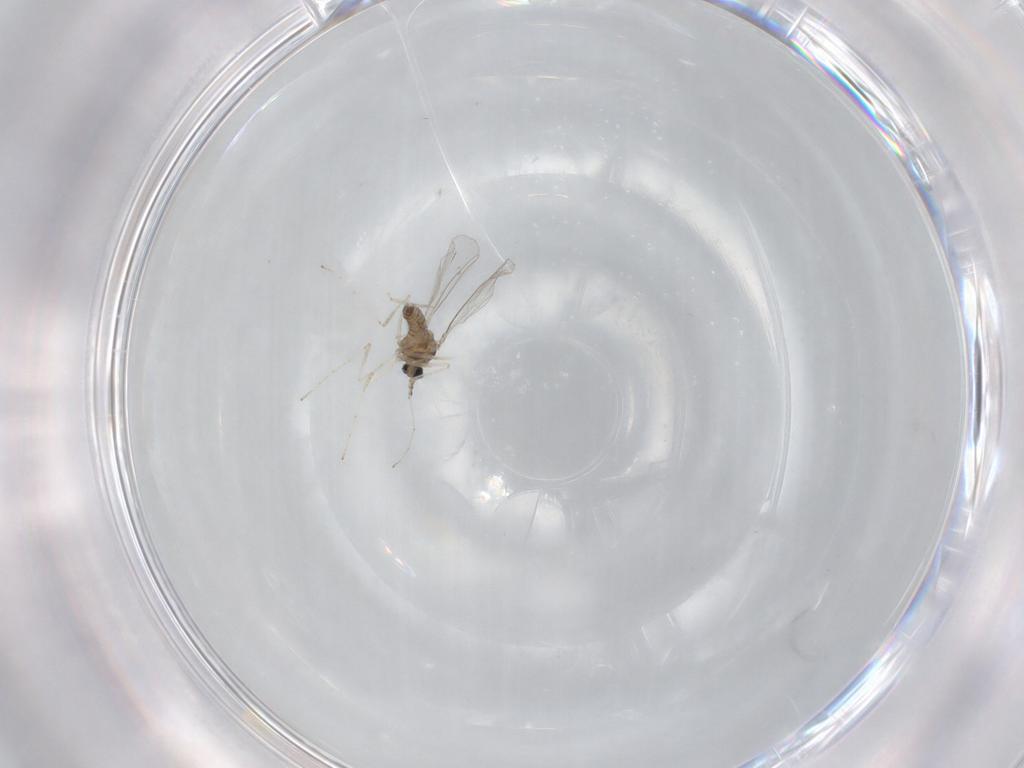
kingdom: Animalia
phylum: Arthropoda
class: Insecta
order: Diptera
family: Cecidomyiidae
